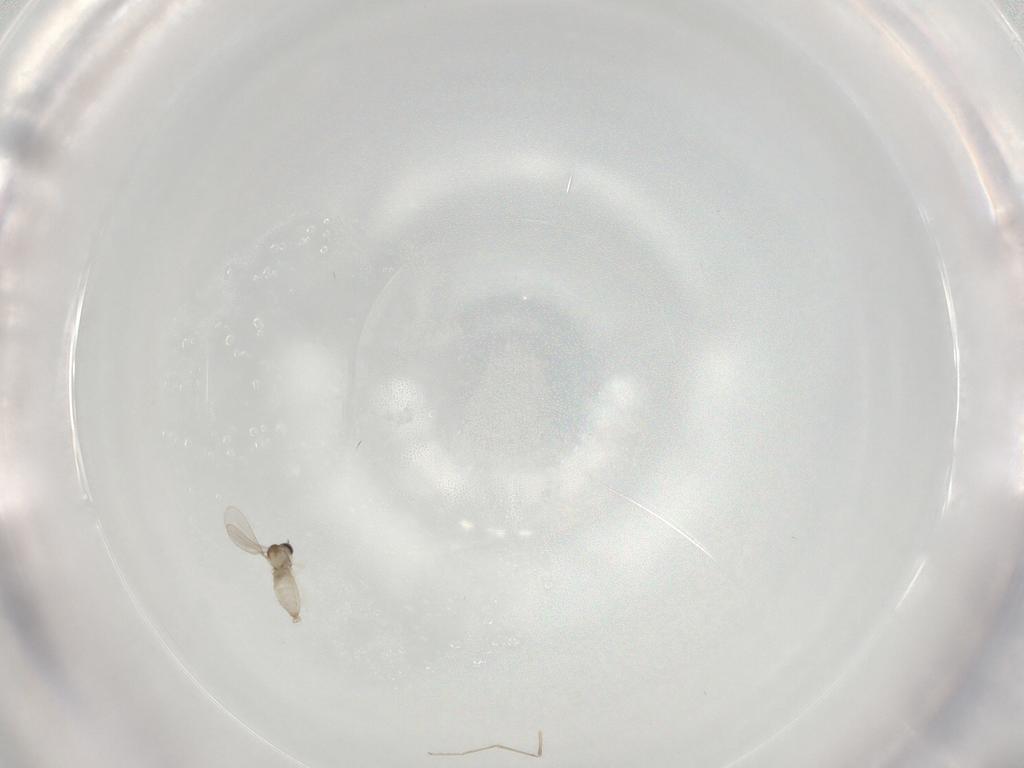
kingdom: Animalia
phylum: Arthropoda
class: Insecta
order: Diptera
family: Cecidomyiidae
